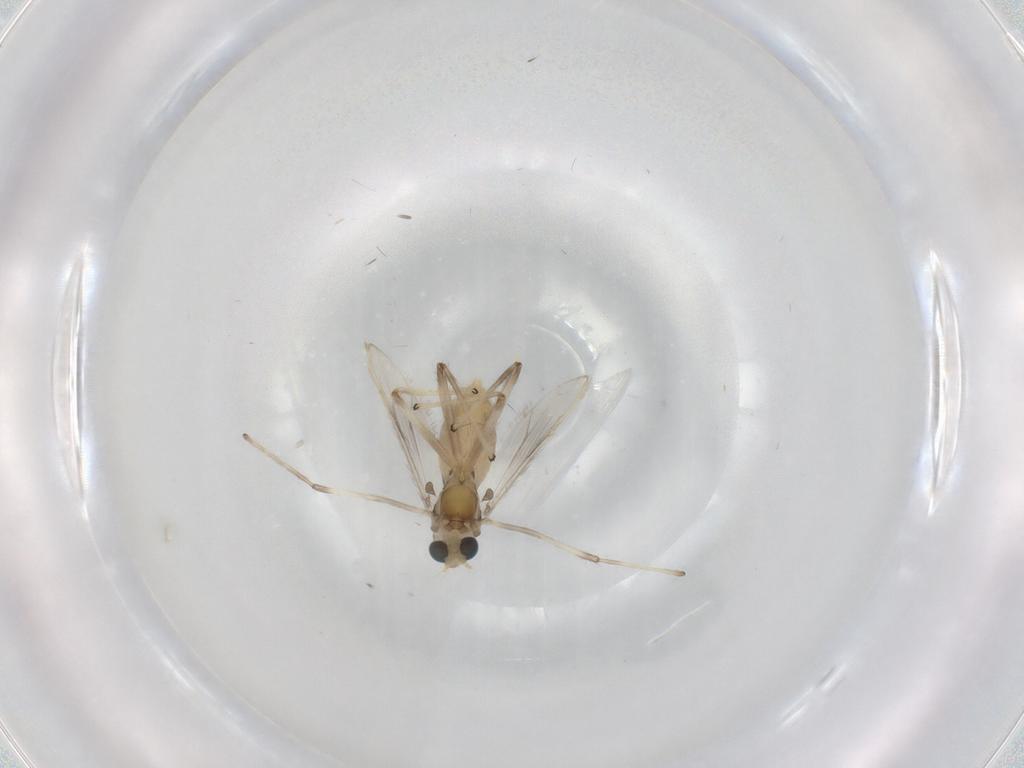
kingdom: Animalia
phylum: Arthropoda
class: Insecta
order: Diptera
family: Chironomidae
